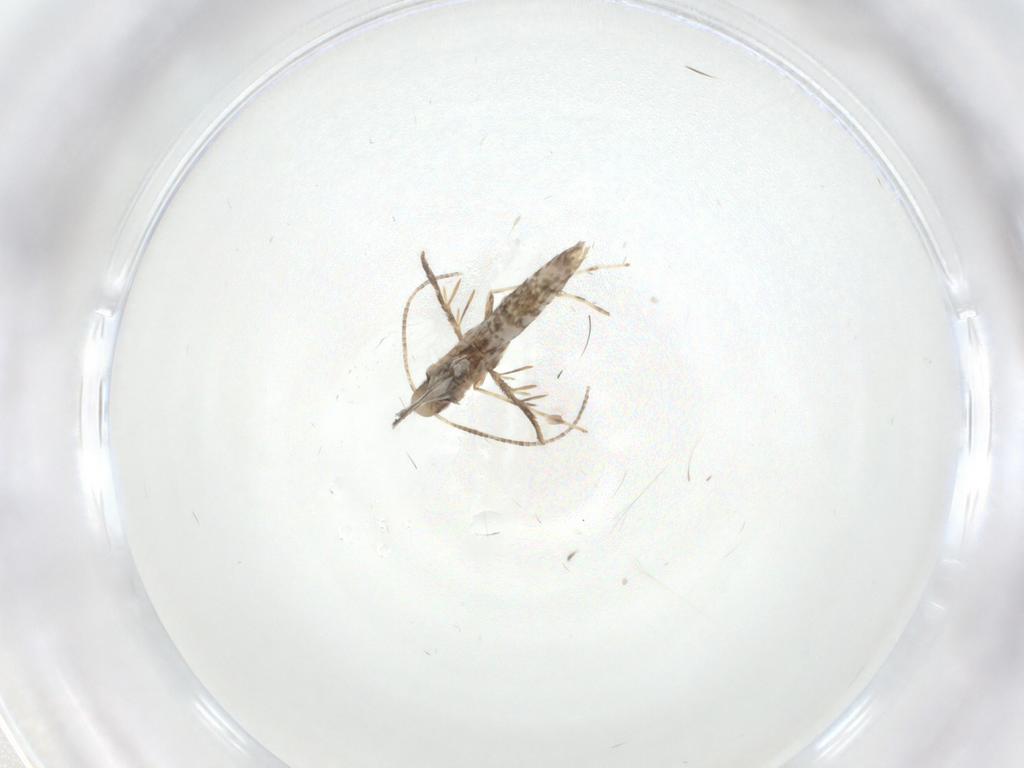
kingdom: Animalia
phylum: Arthropoda
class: Insecta
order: Lepidoptera
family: Gracillariidae
